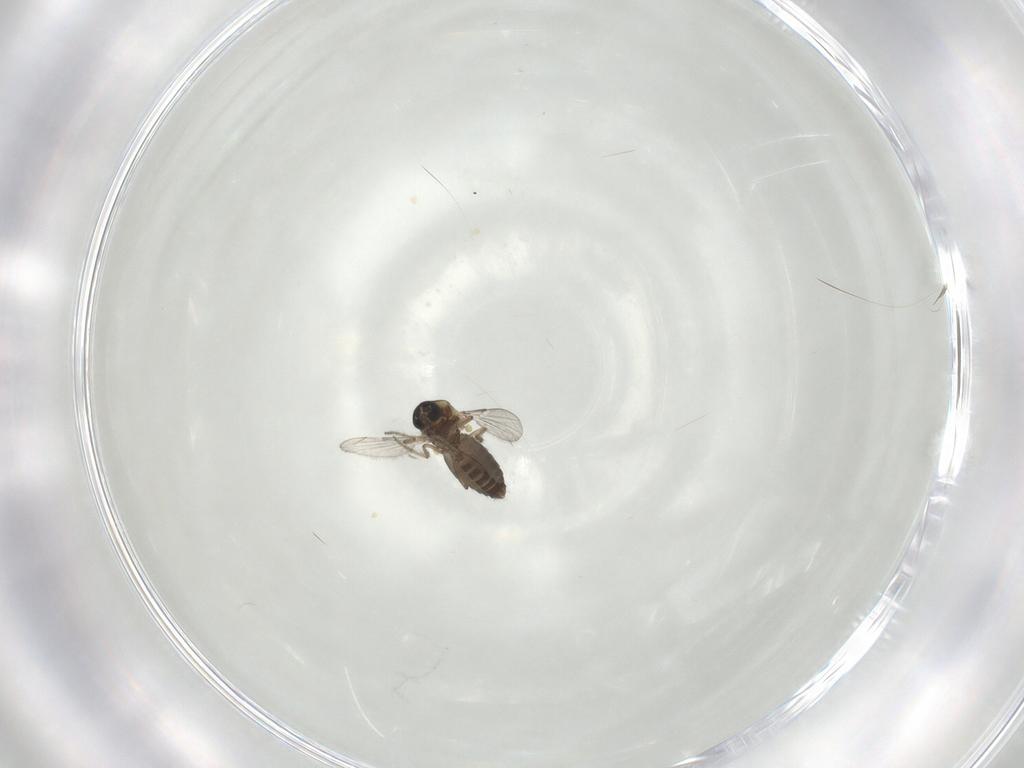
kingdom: Animalia
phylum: Arthropoda
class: Insecta
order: Diptera
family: Ceratopogonidae
